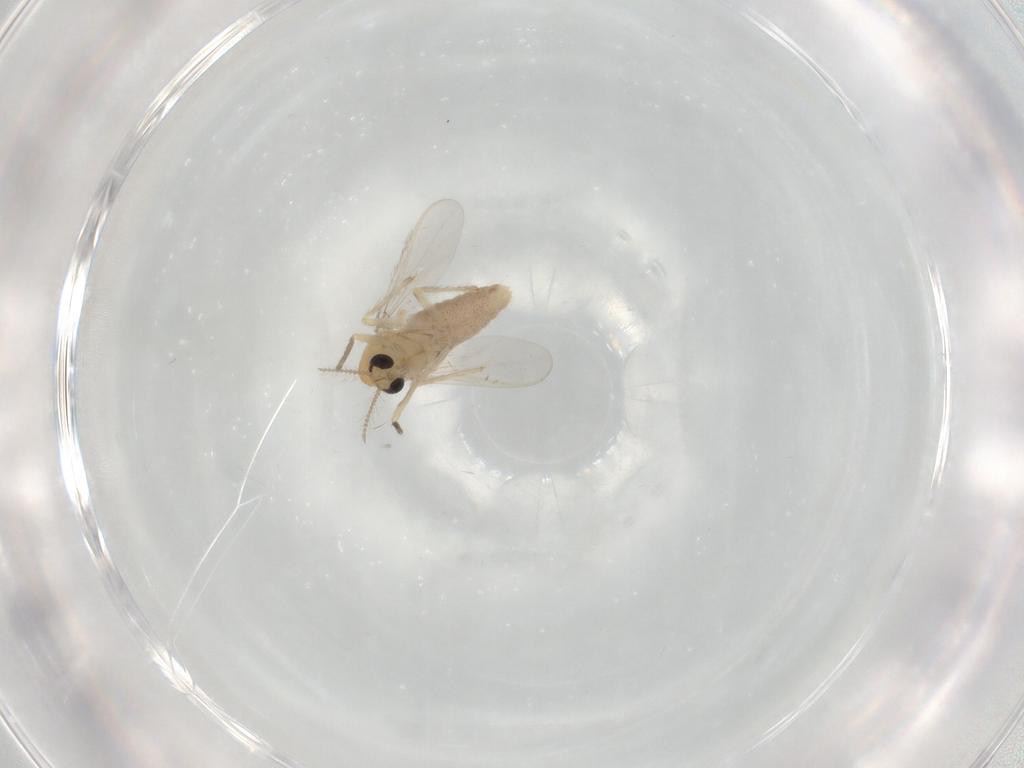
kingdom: Animalia
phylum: Arthropoda
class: Insecta
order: Diptera
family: Chironomidae
